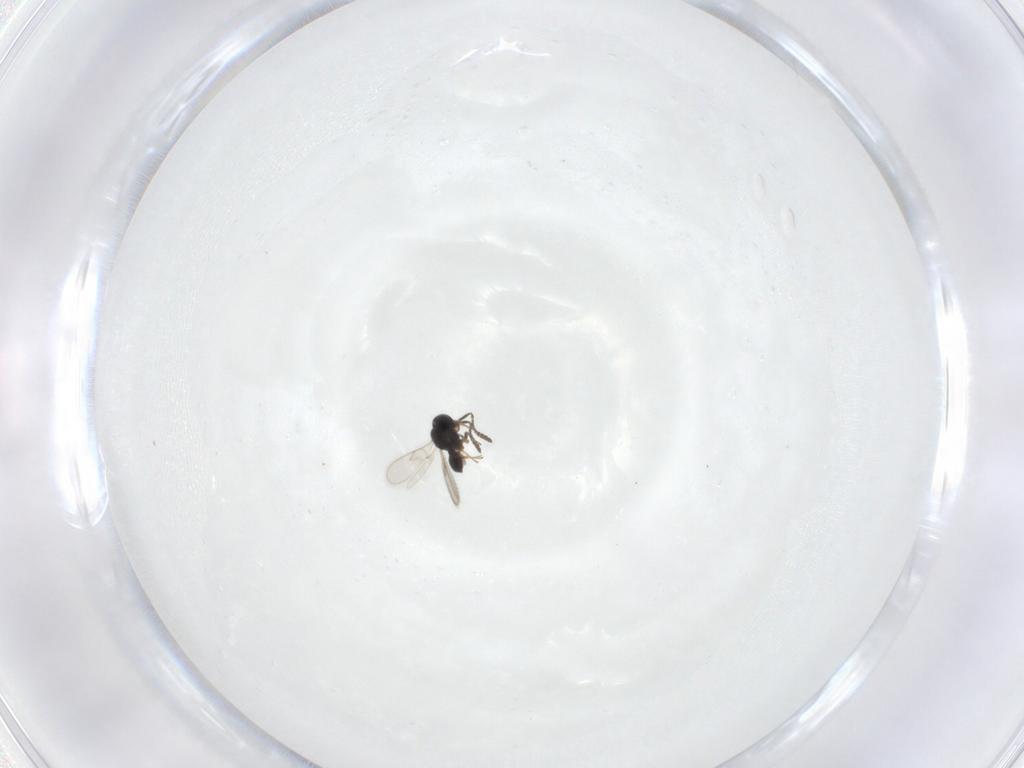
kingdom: Animalia
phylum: Arthropoda
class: Insecta
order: Hymenoptera
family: Scelionidae
